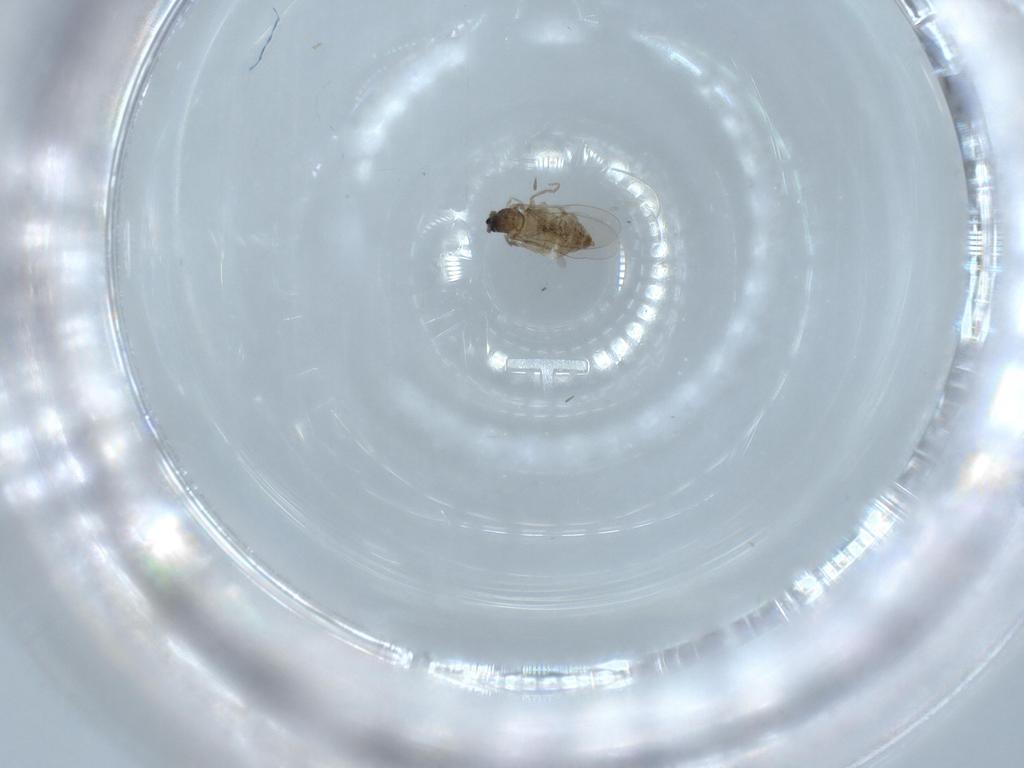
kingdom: Animalia
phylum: Arthropoda
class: Insecta
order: Diptera
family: Cecidomyiidae
